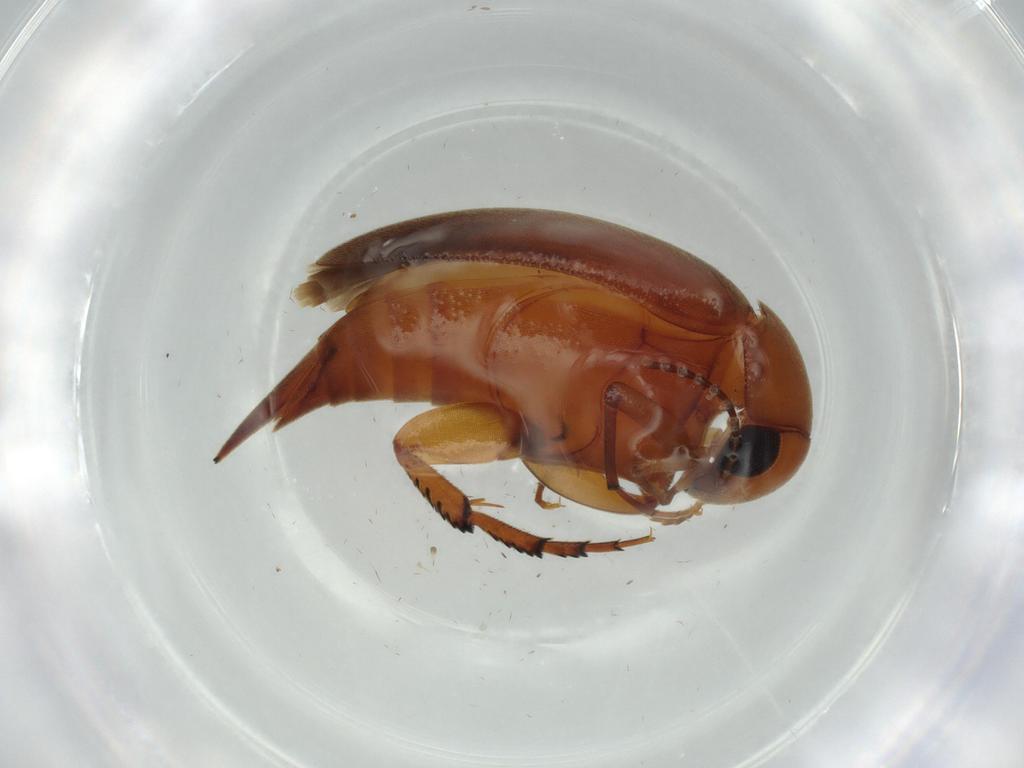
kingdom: Animalia
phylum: Arthropoda
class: Insecta
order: Coleoptera
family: Mordellidae
